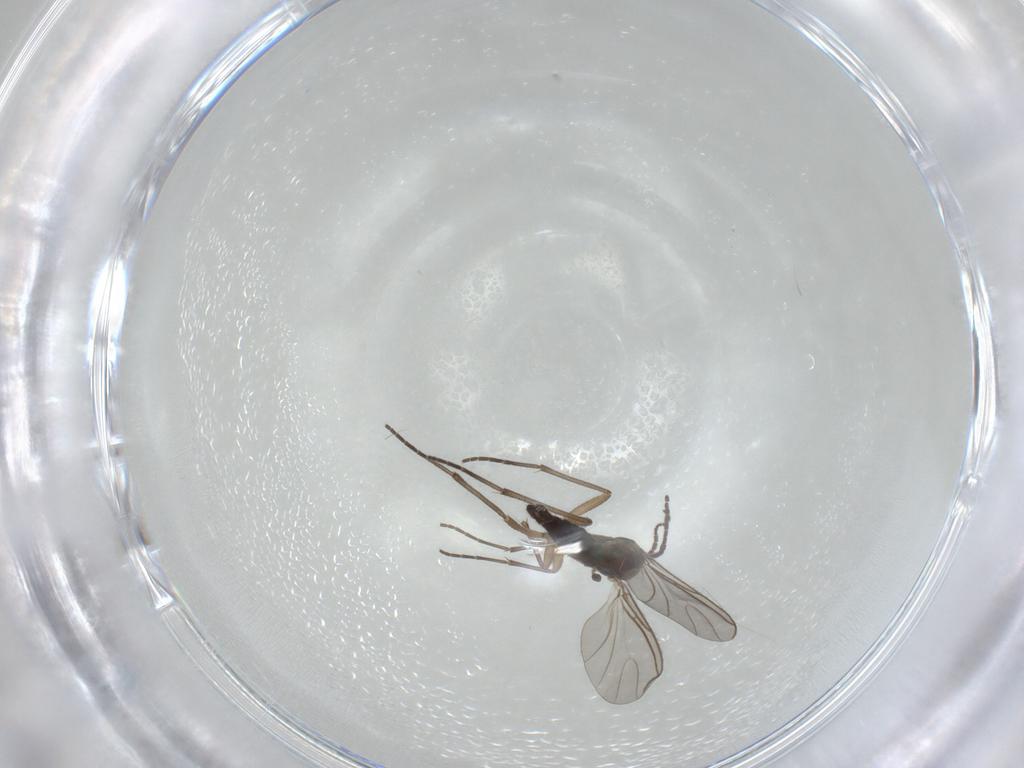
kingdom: Animalia
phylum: Arthropoda
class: Insecta
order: Diptera
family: Sciaridae
